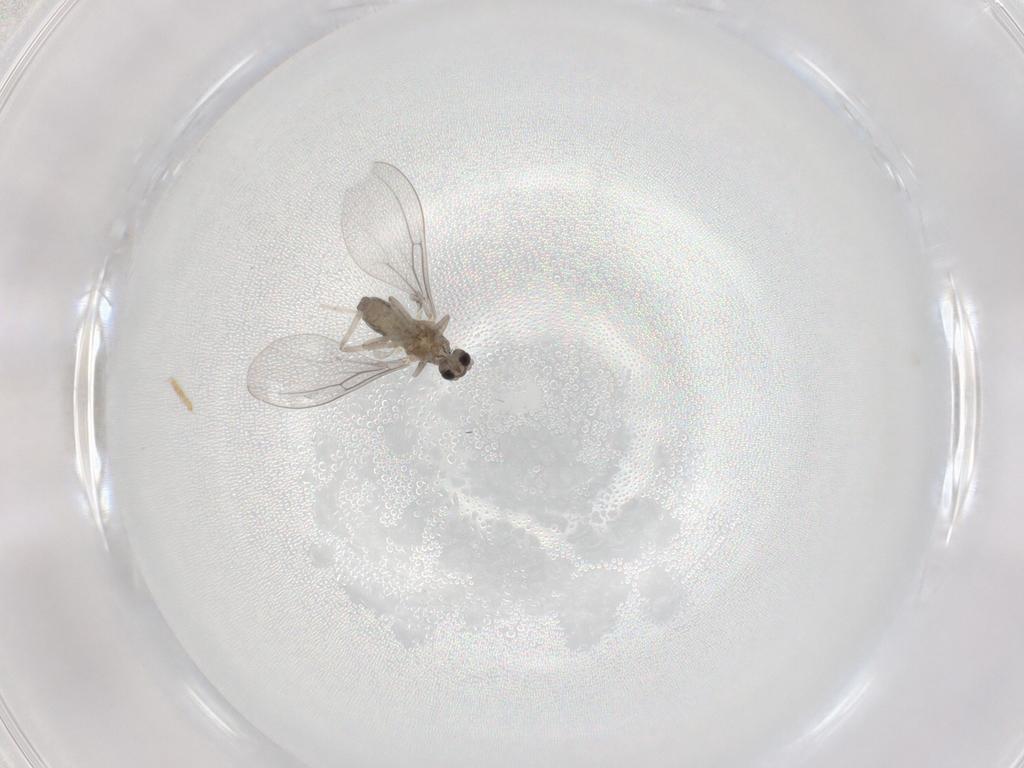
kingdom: Animalia
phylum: Arthropoda
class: Insecta
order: Diptera
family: Cecidomyiidae
